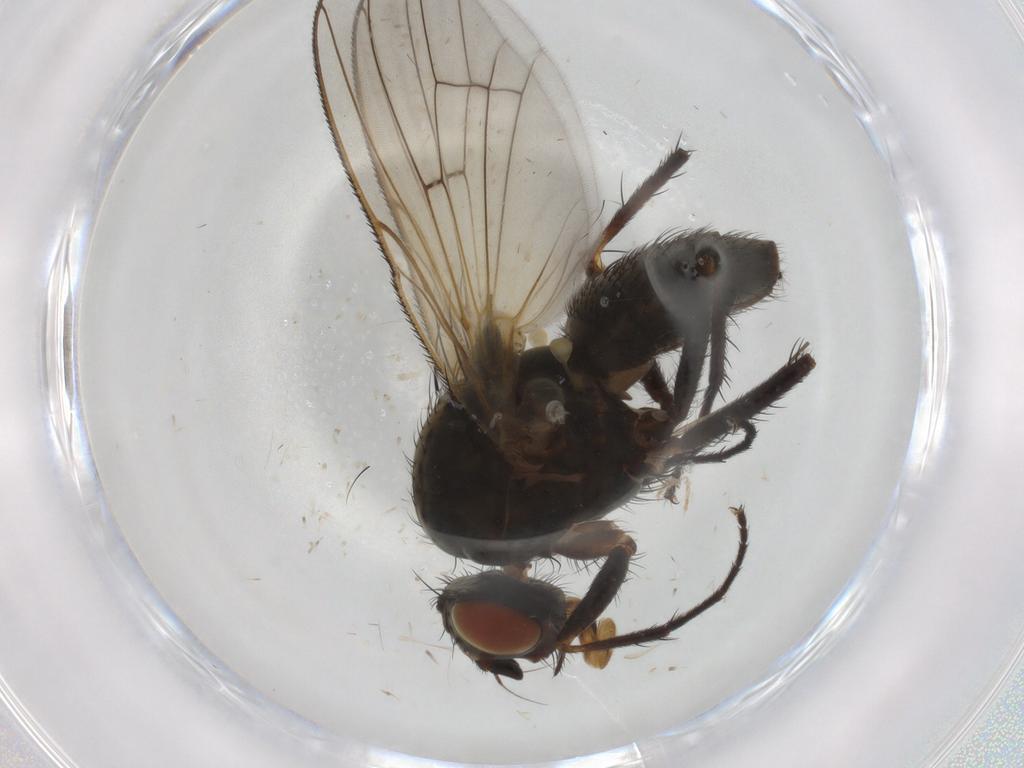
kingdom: Animalia
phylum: Arthropoda
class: Insecta
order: Diptera
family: Anthomyiidae
